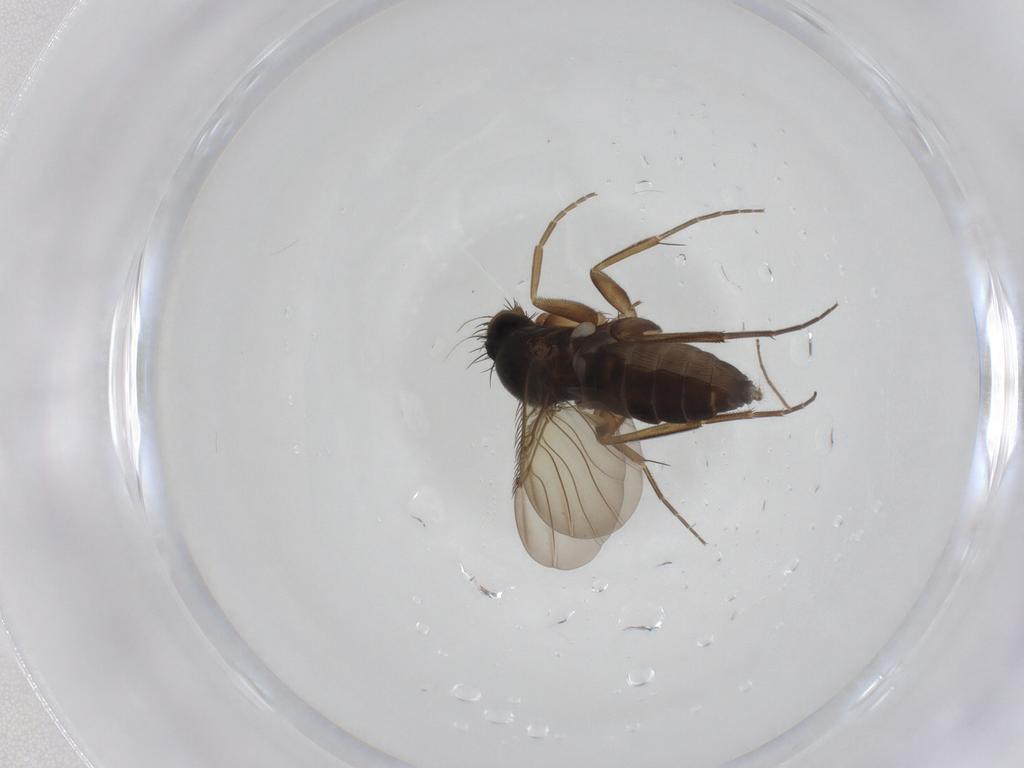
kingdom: Animalia
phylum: Arthropoda
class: Insecta
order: Diptera
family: Phoridae
